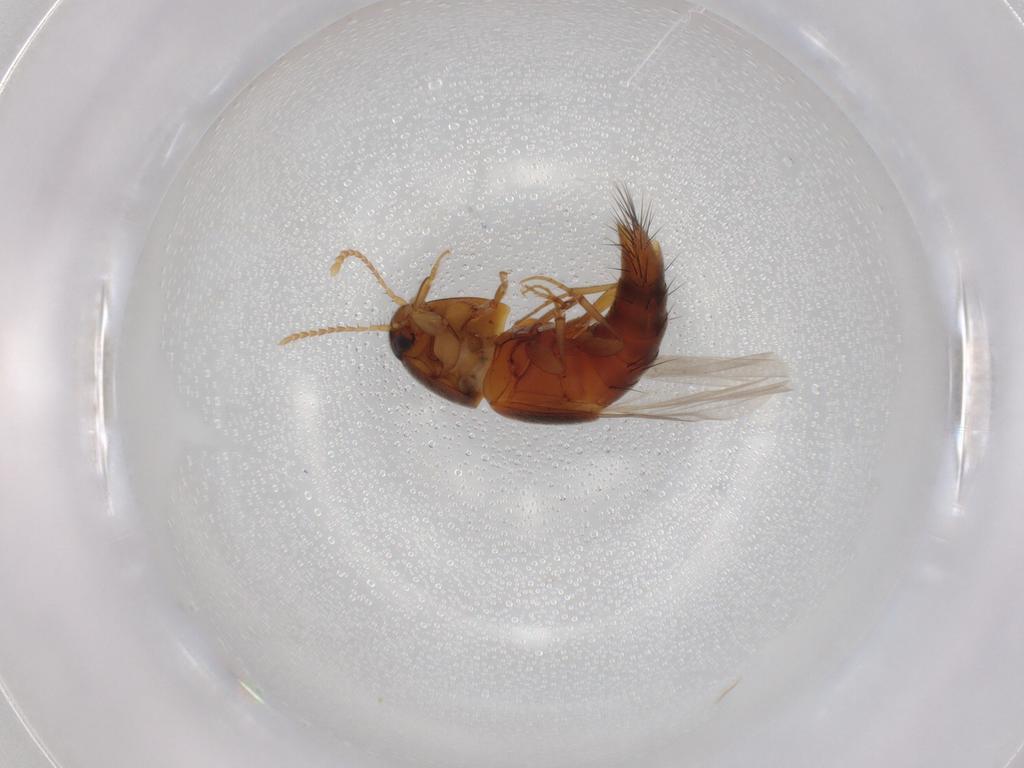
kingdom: Animalia
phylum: Arthropoda
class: Insecta
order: Coleoptera
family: Staphylinidae
